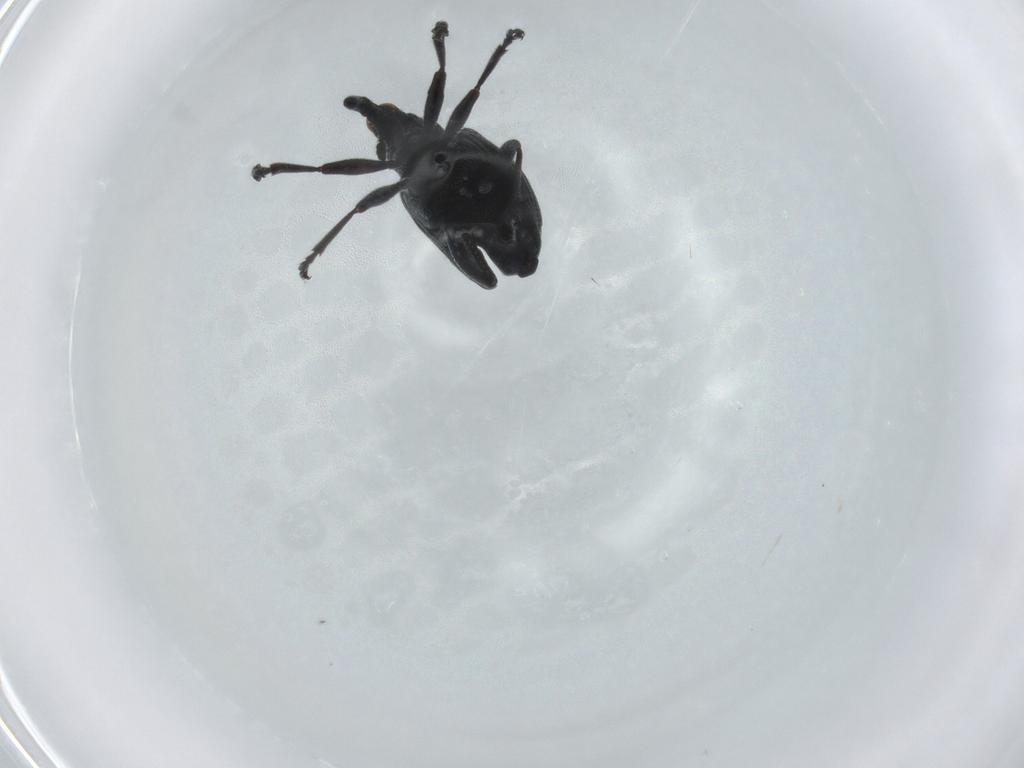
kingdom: Animalia
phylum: Arthropoda
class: Insecta
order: Coleoptera
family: Brentidae
